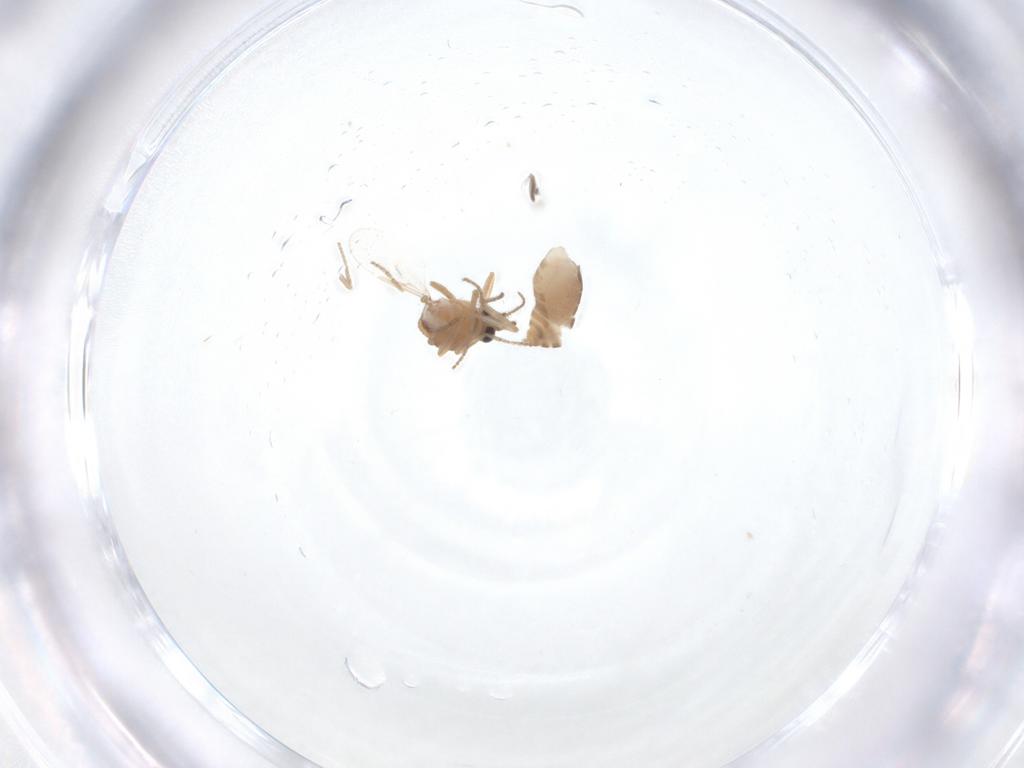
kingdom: Animalia
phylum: Arthropoda
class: Insecta
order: Diptera
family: Ceratopogonidae
